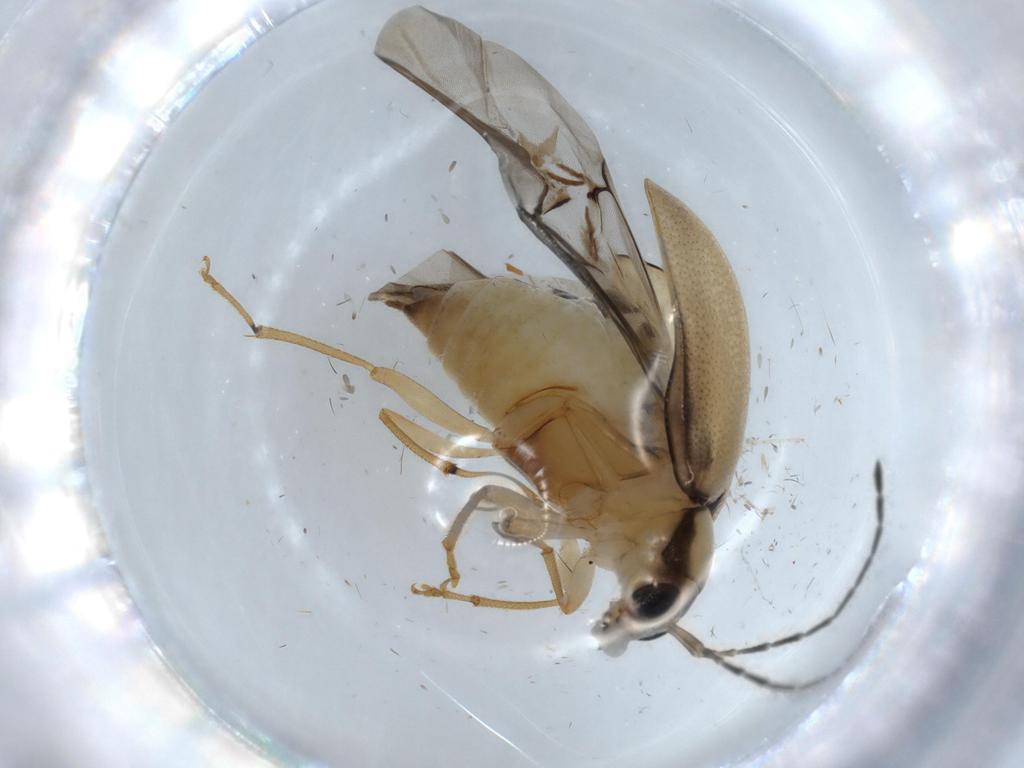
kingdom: Animalia
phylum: Arthropoda
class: Insecta
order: Coleoptera
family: Chrysomelidae
